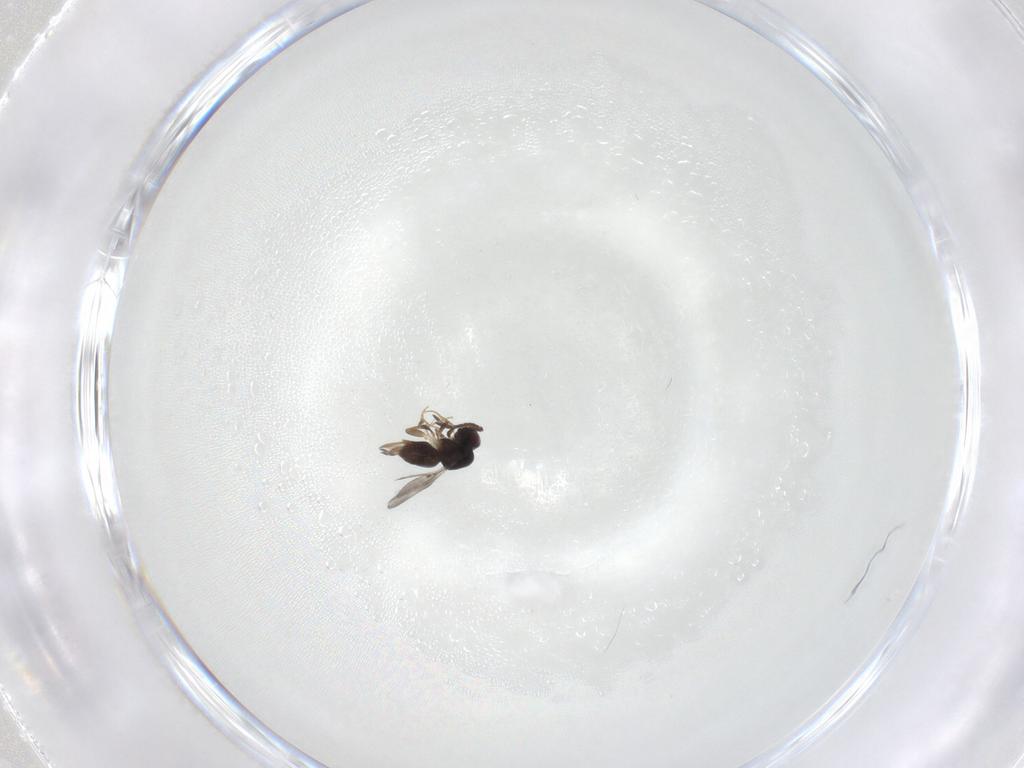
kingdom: Animalia
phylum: Arthropoda
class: Insecta
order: Hymenoptera
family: Ceraphronidae
